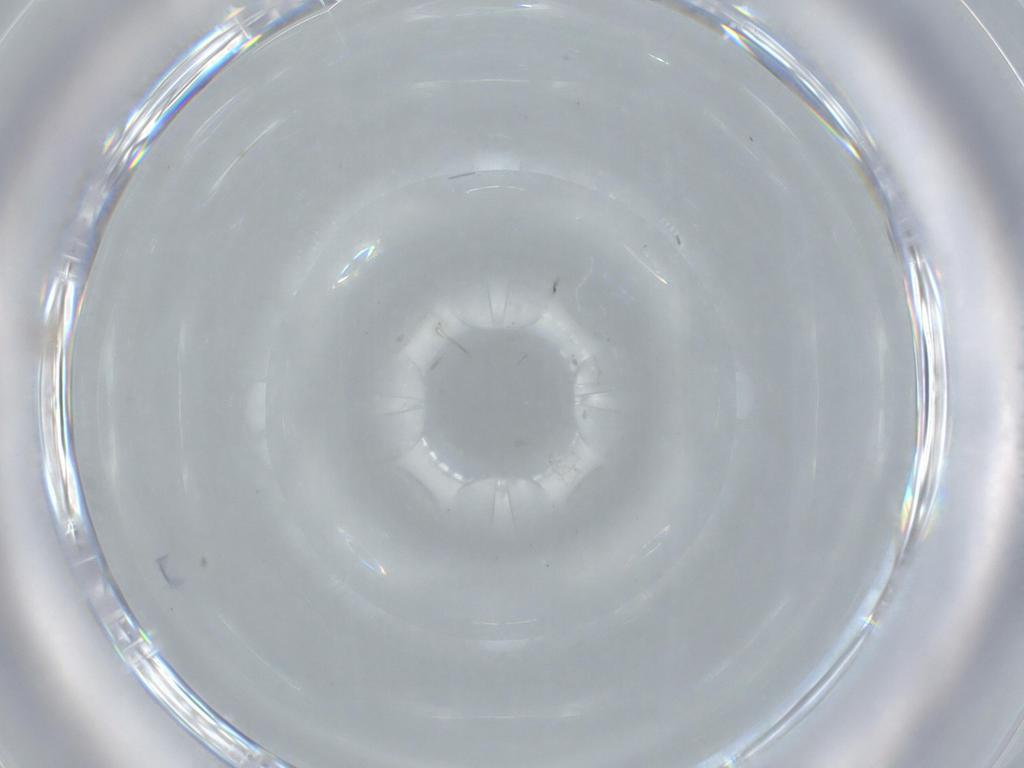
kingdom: Animalia
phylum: Arthropoda
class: Insecta
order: Hymenoptera
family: Mymaridae
